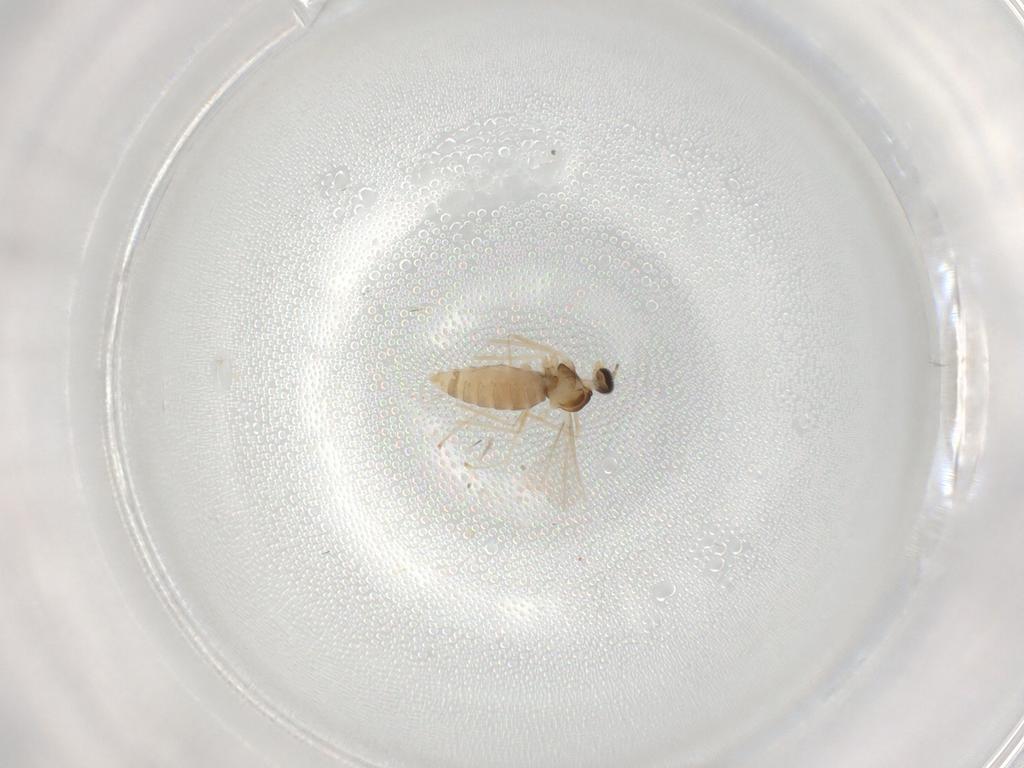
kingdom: Animalia
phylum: Arthropoda
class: Insecta
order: Diptera
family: Cecidomyiidae
